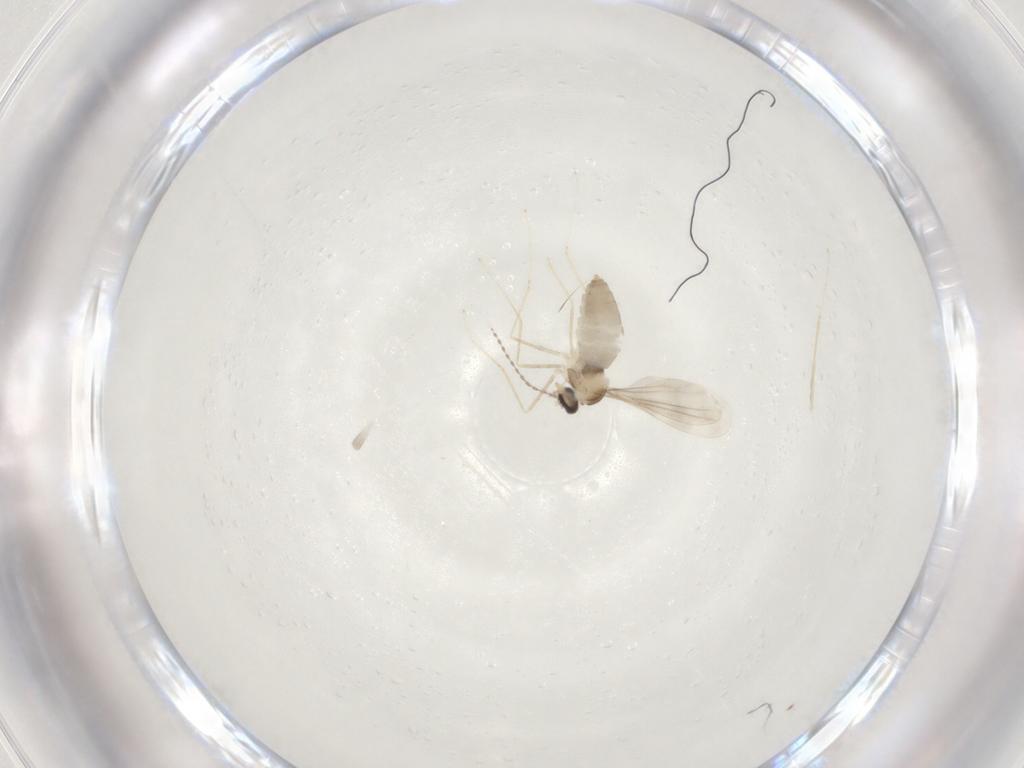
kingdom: Animalia
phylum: Arthropoda
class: Insecta
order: Diptera
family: Cecidomyiidae
